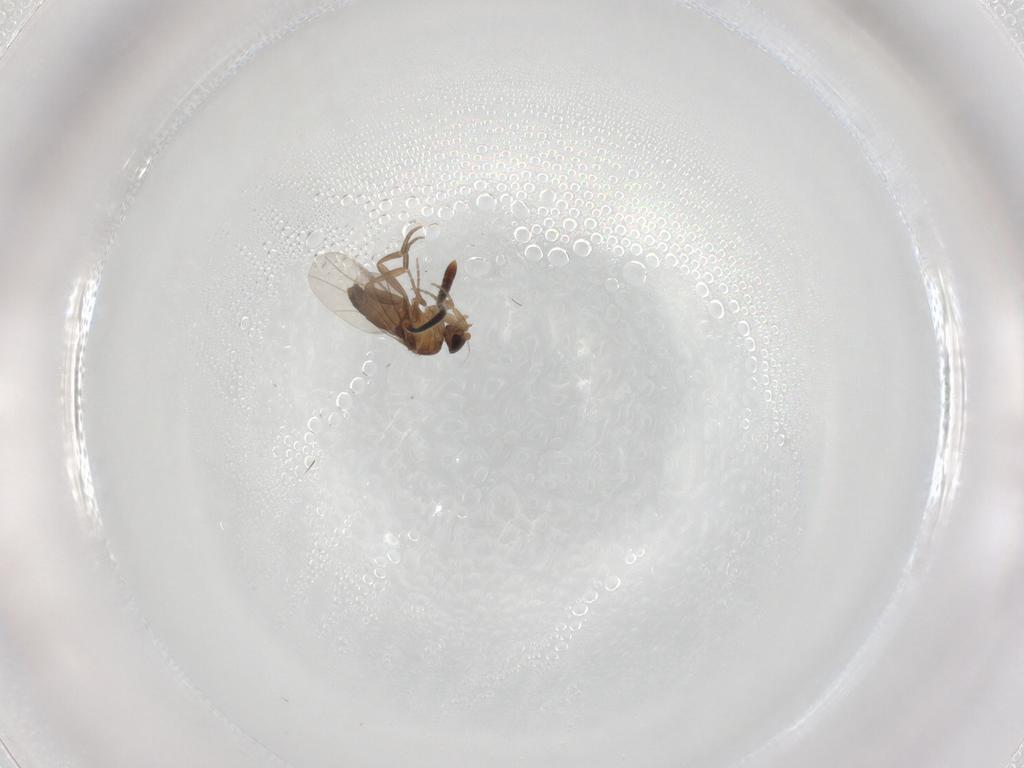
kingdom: Animalia
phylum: Arthropoda
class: Insecta
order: Diptera
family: Phoridae
